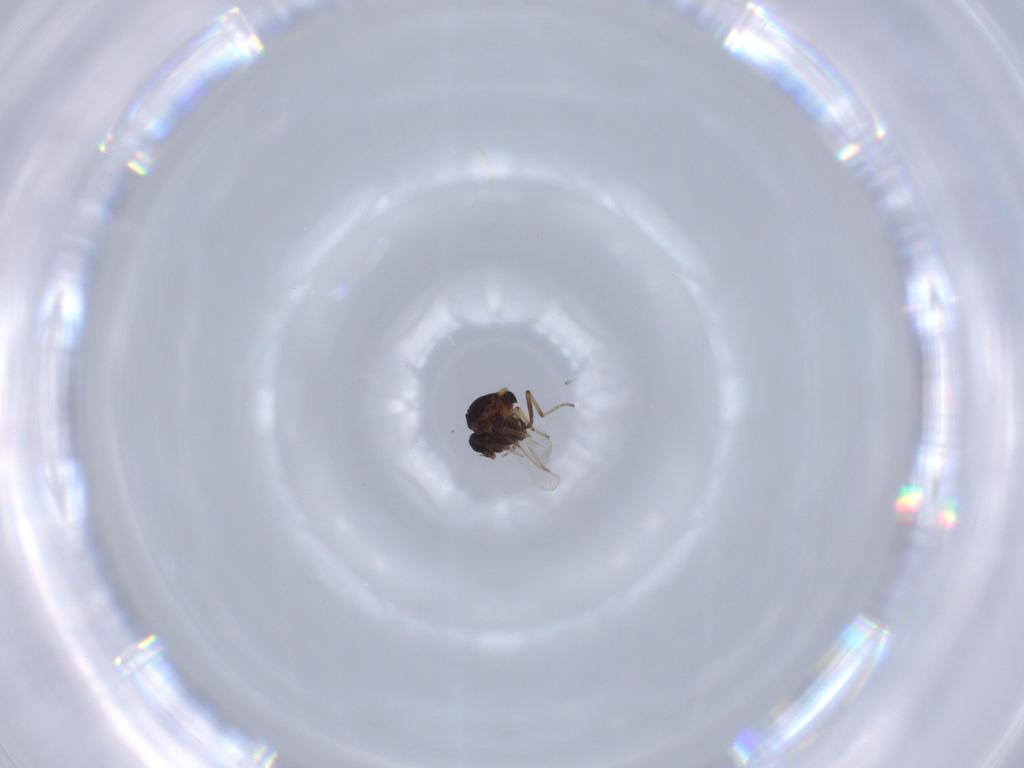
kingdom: Animalia
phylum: Arthropoda
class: Insecta
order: Diptera
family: Ceratopogonidae
